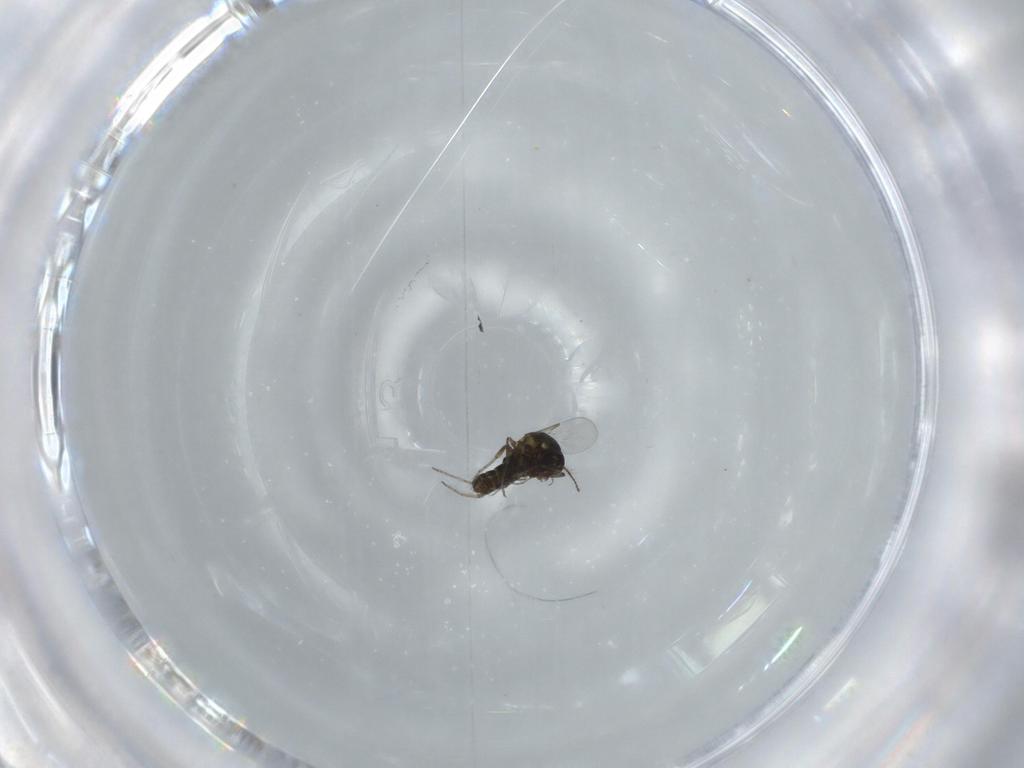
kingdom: Animalia
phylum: Arthropoda
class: Insecta
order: Diptera
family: Ceratopogonidae
